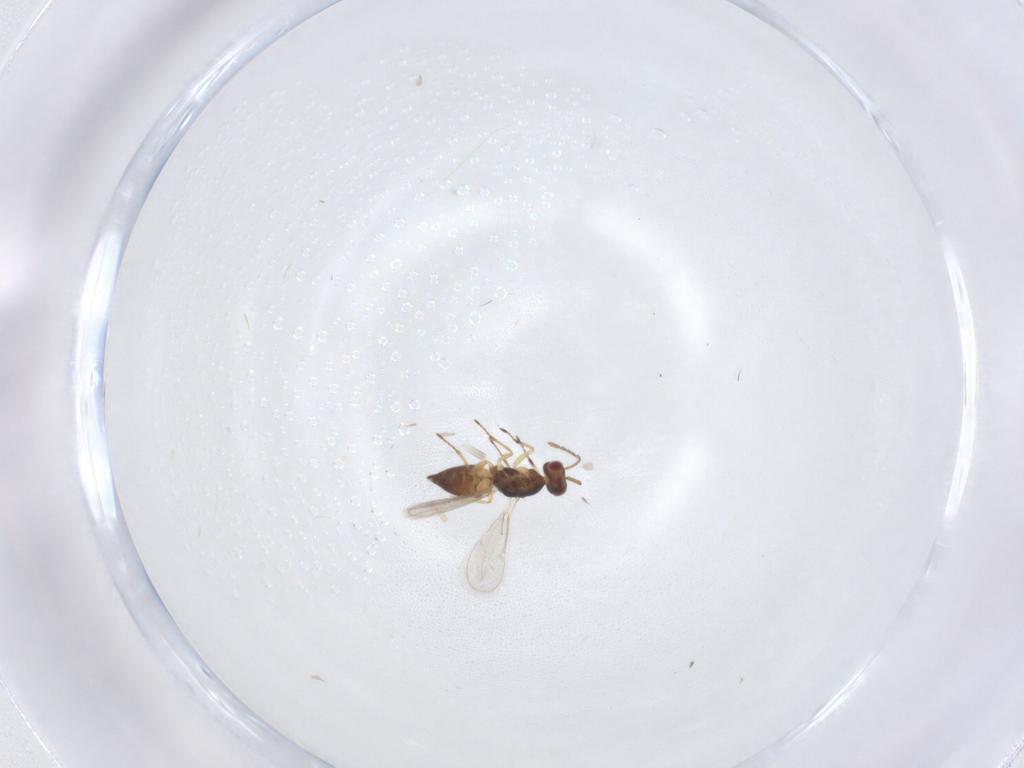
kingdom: Animalia
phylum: Arthropoda
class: Insecta
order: Hymenoptera
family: Eulophidae
